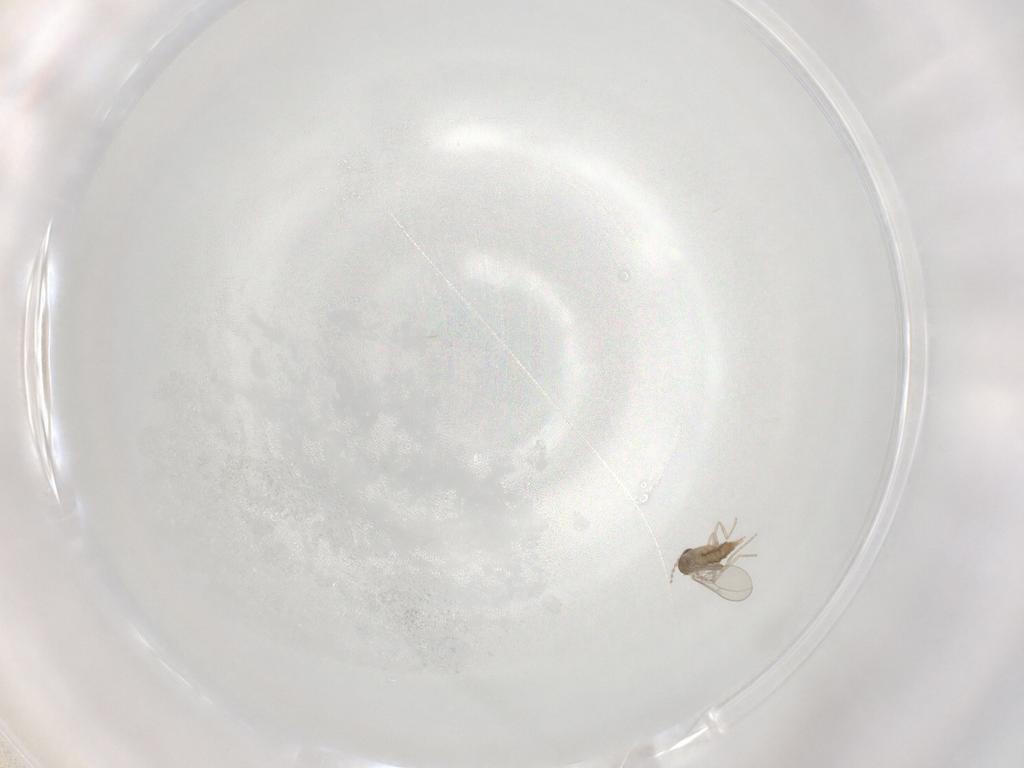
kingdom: Animalia
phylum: Arthropoda
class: Insecta
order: Diptera
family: Cecidomyiidae
